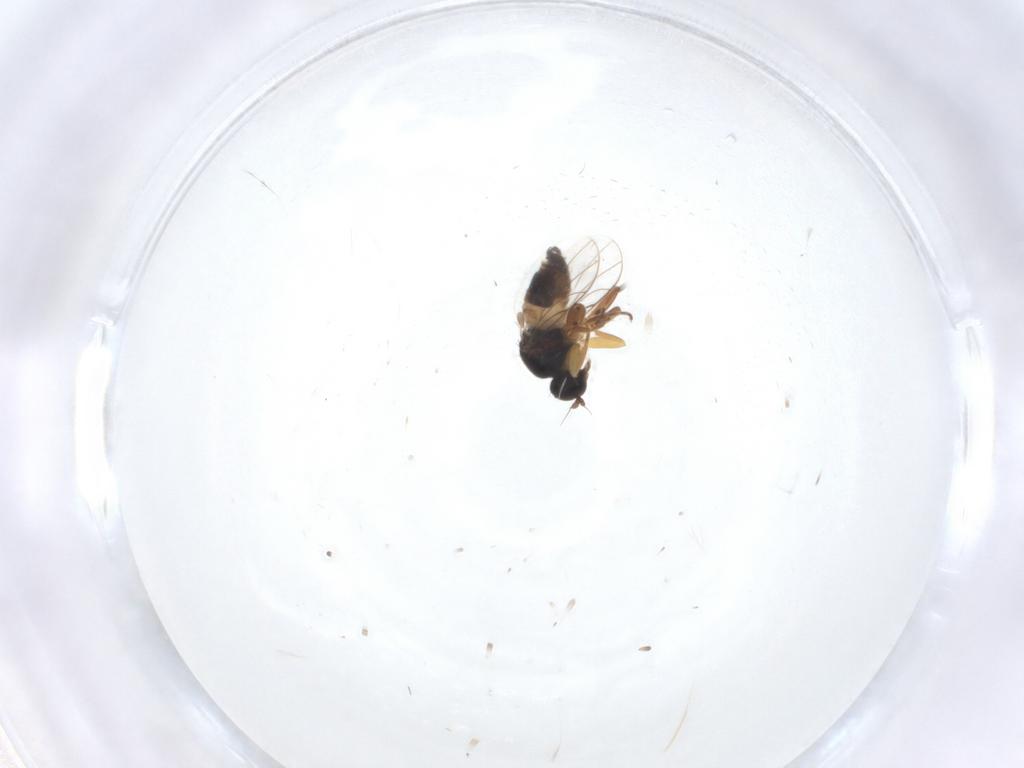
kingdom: Animalia
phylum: Arthropoda
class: Insecta
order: Diptera
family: Hybotidae
